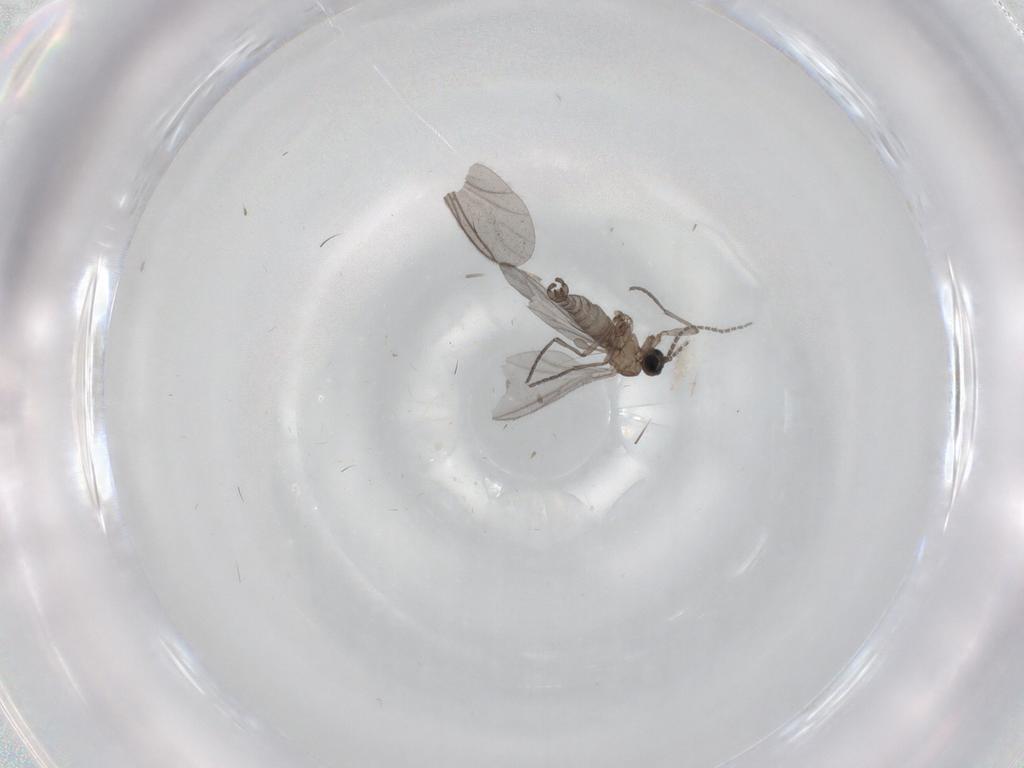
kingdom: Animalia
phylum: Arthropoda
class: Insecta
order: Diptera
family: Sciaridae
